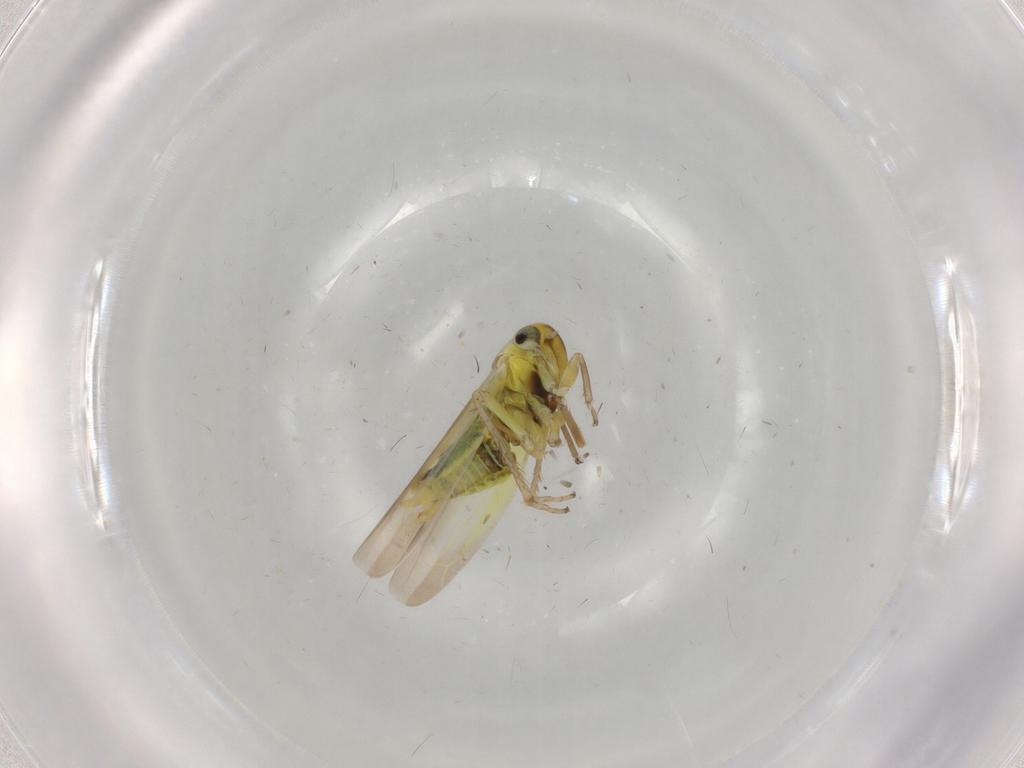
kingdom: Animalia
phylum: Arthropoda
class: Insecta
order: Hemiptera
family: Cicadellidae
